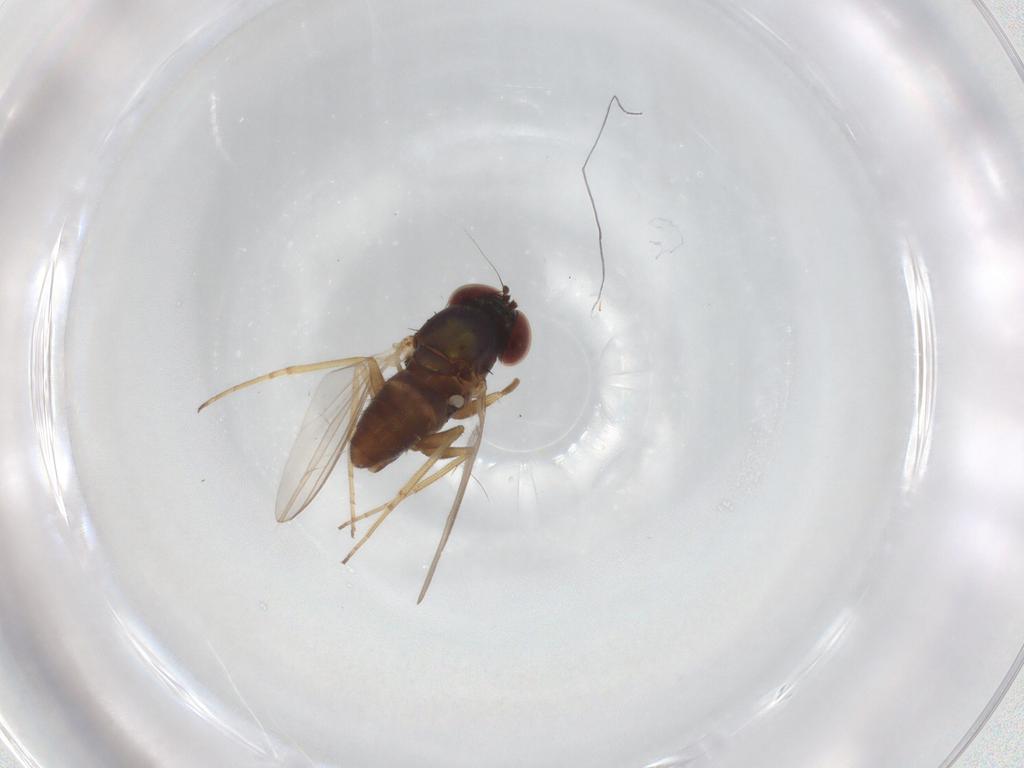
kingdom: Animalia
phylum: Arthropoda
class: Insecta
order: Diptera
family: Dolichopodidae
